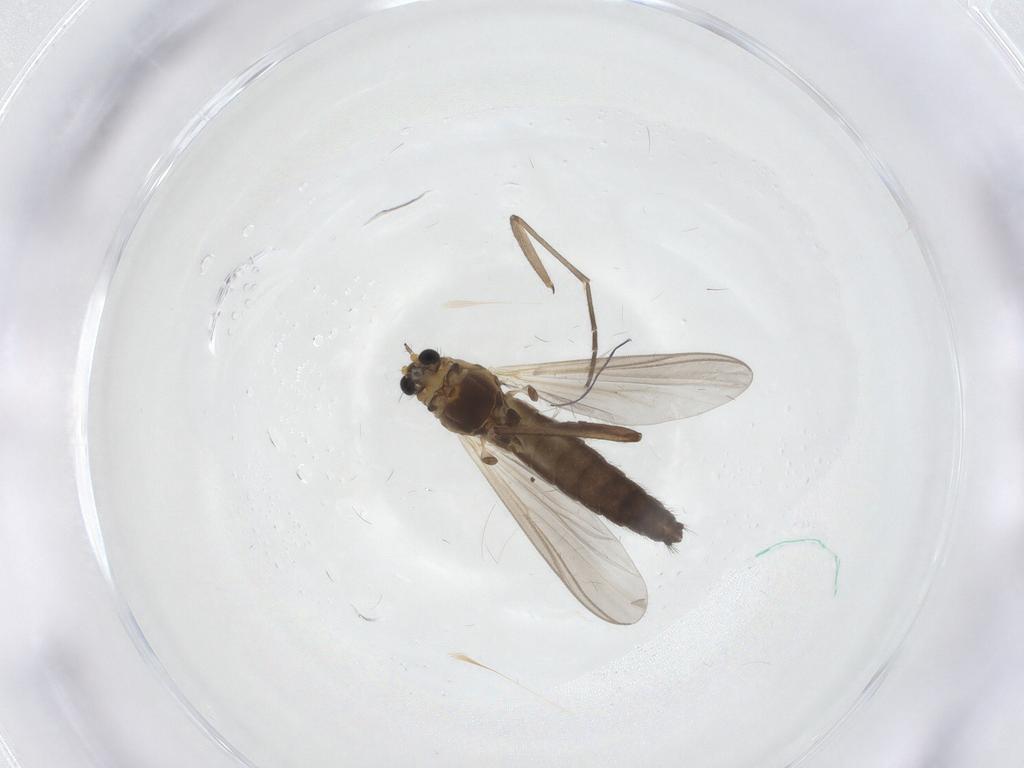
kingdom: Animalia
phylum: Arthropoda
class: Insecta
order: Diptera
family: Chironomidae
